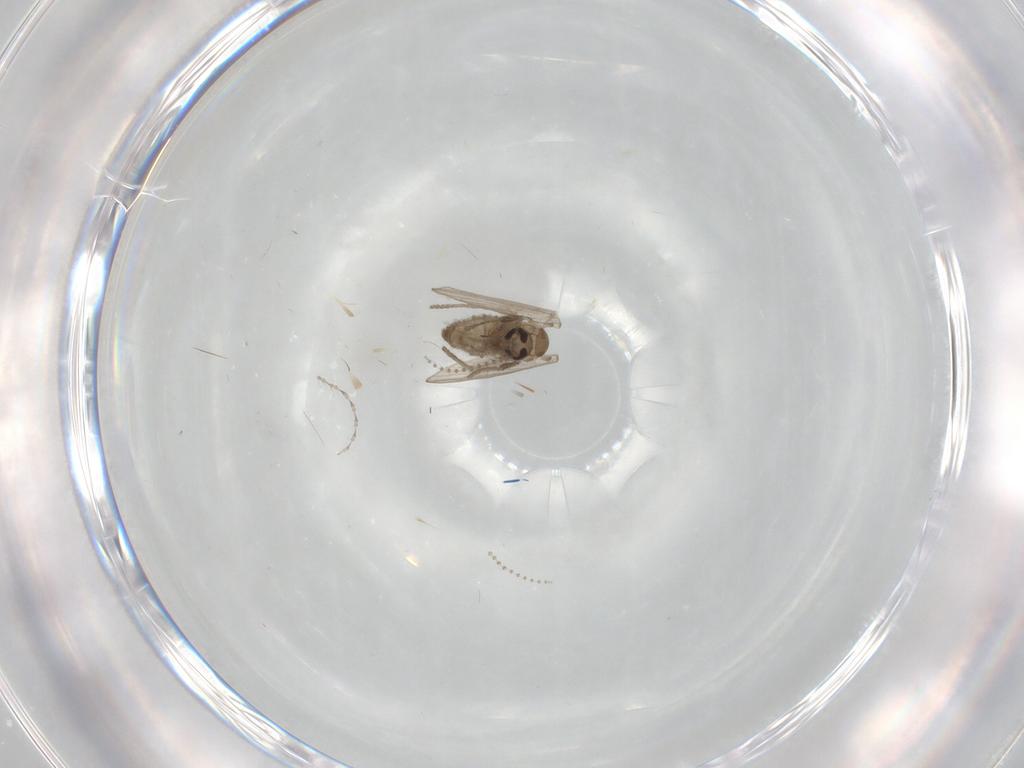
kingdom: Animalia
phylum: Arthropoda
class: Insecta
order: Diptera
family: Psychodidae
